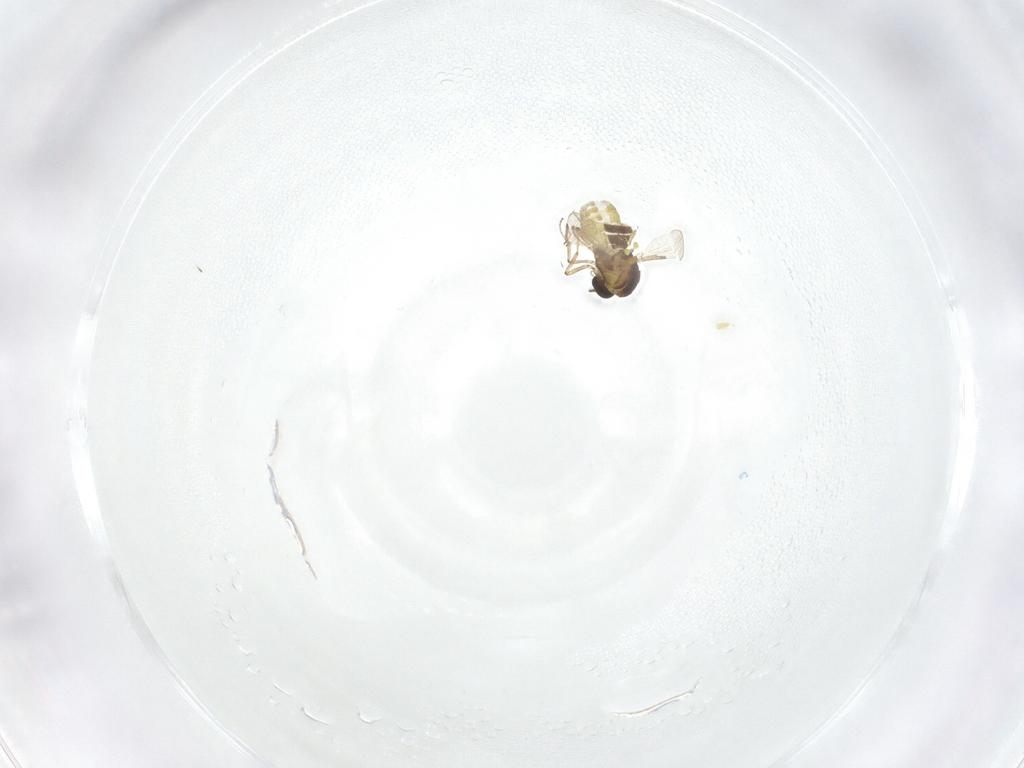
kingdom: Animalia
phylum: Arthropoda
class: Insecta
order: Diptera
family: Ceratopogonidae
